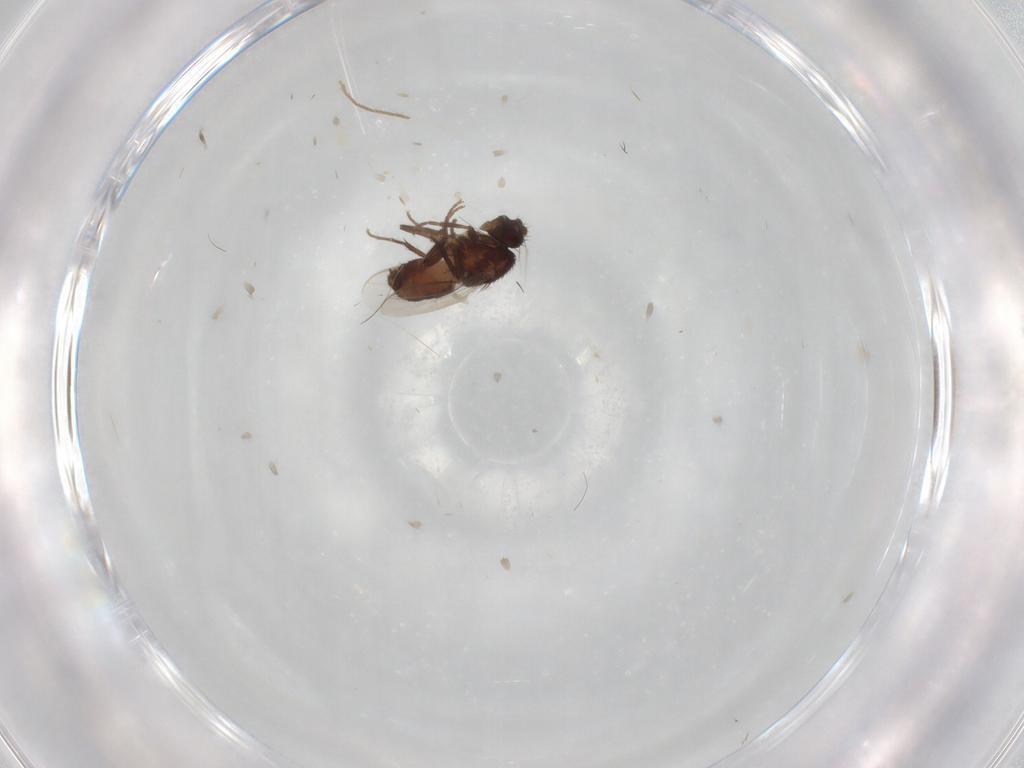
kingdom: Animalia
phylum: Arthropoda
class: Insecta
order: Diptera
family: Sphaeroceridae
